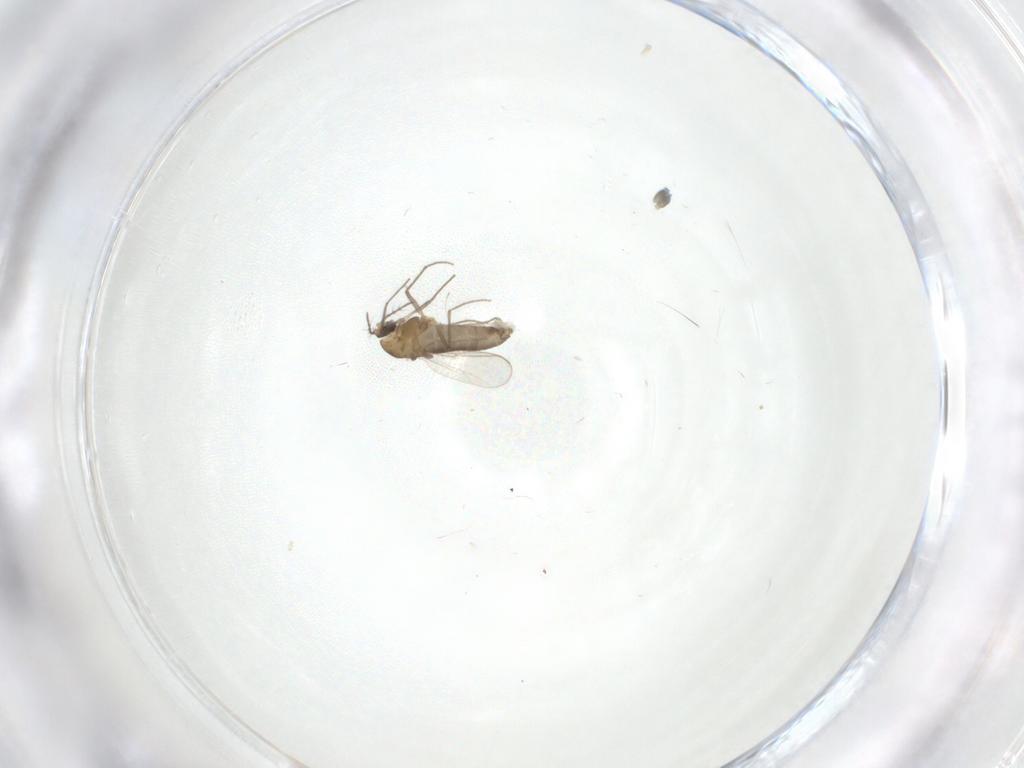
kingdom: Animalia
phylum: Arthropoda
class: Insecta
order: Diptera
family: Chironomidae
